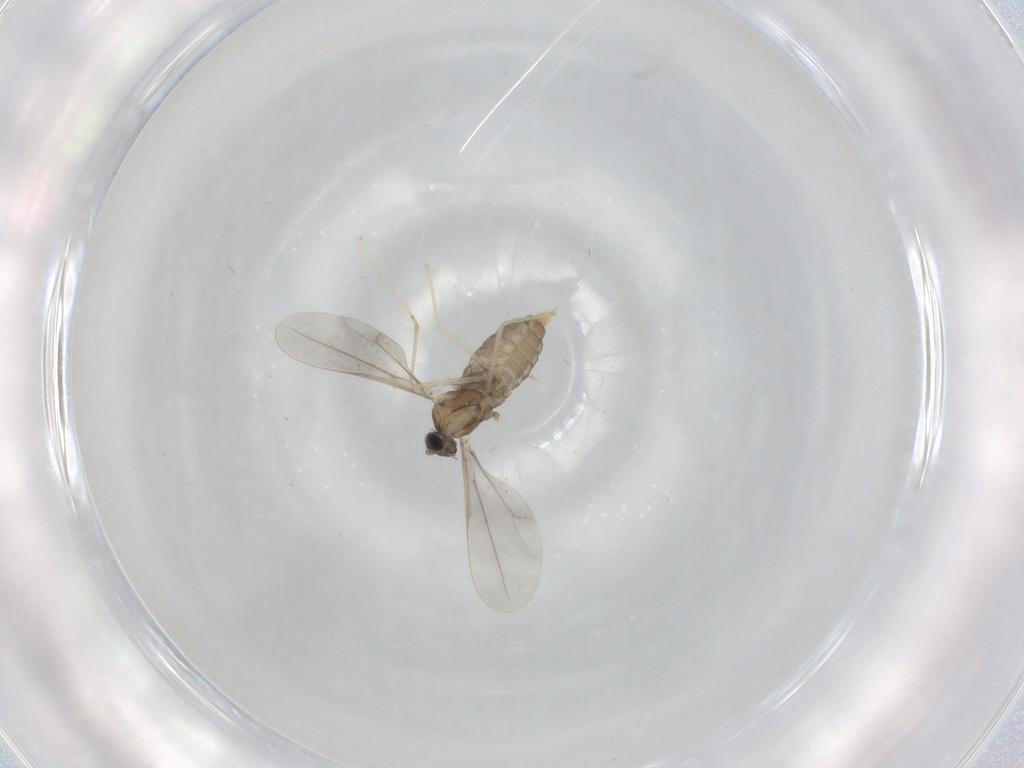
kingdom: Animalia
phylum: Arthropoda
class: Insecta
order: Diptera
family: Cecidomyiidae
